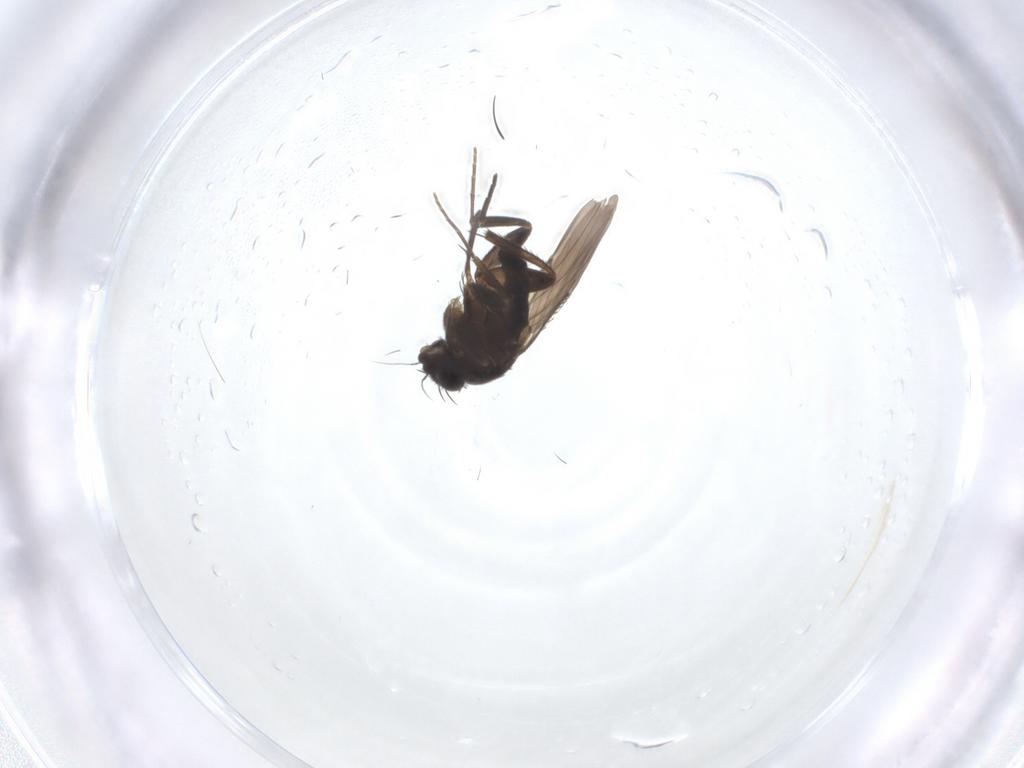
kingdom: Animalia
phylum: Arthropoda
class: Insecta
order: Diptera
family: Phoridae
